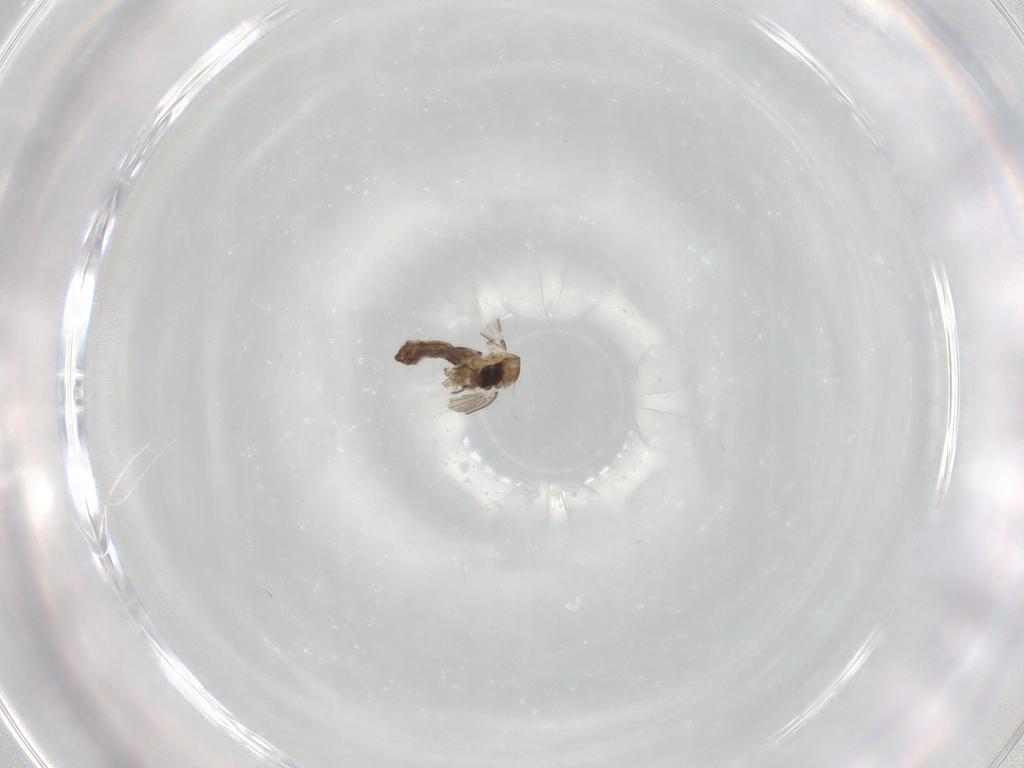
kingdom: Animalia
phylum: Arthropoda
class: Insecta
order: Diptera
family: Psychodidae
